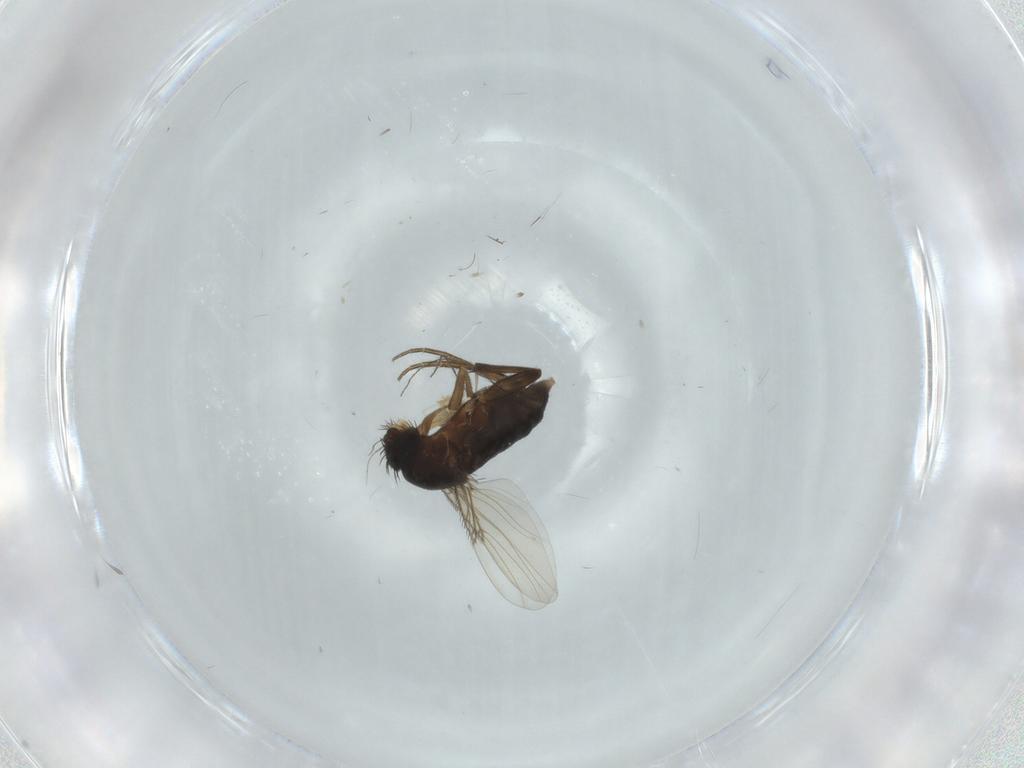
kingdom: Animalia
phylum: Arthropoda
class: Insecta
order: Diptera
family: Phoridae
